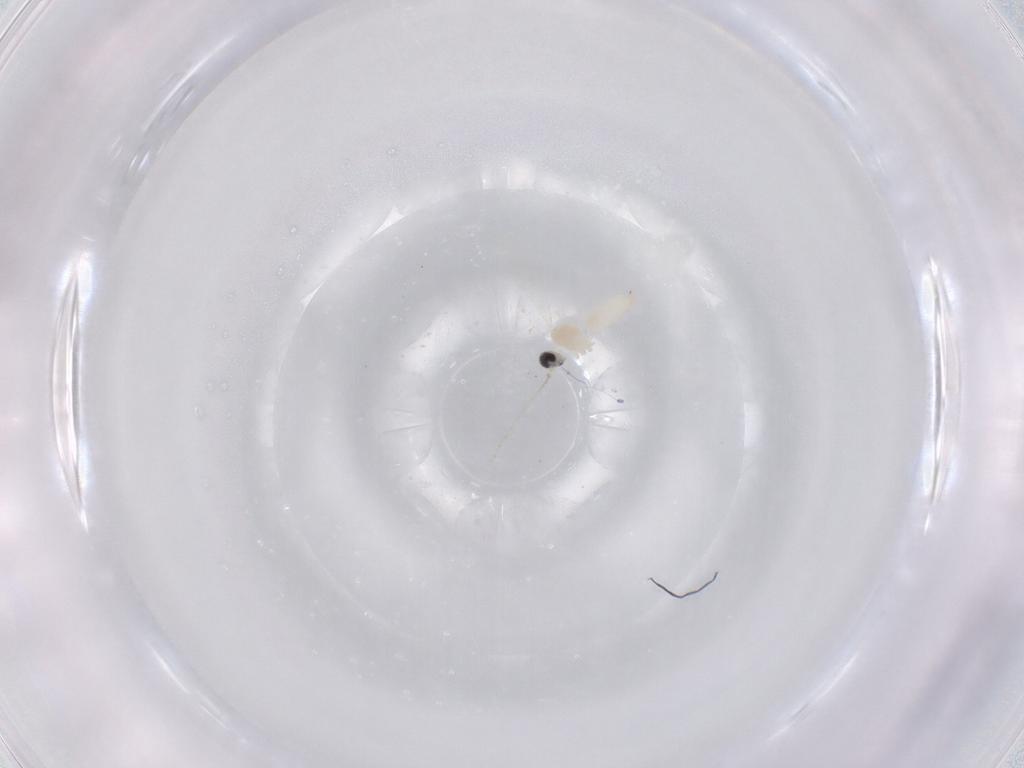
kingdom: Animalia
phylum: Arthropoda
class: Insecta
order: Diptera
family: Cecidomyiidae
